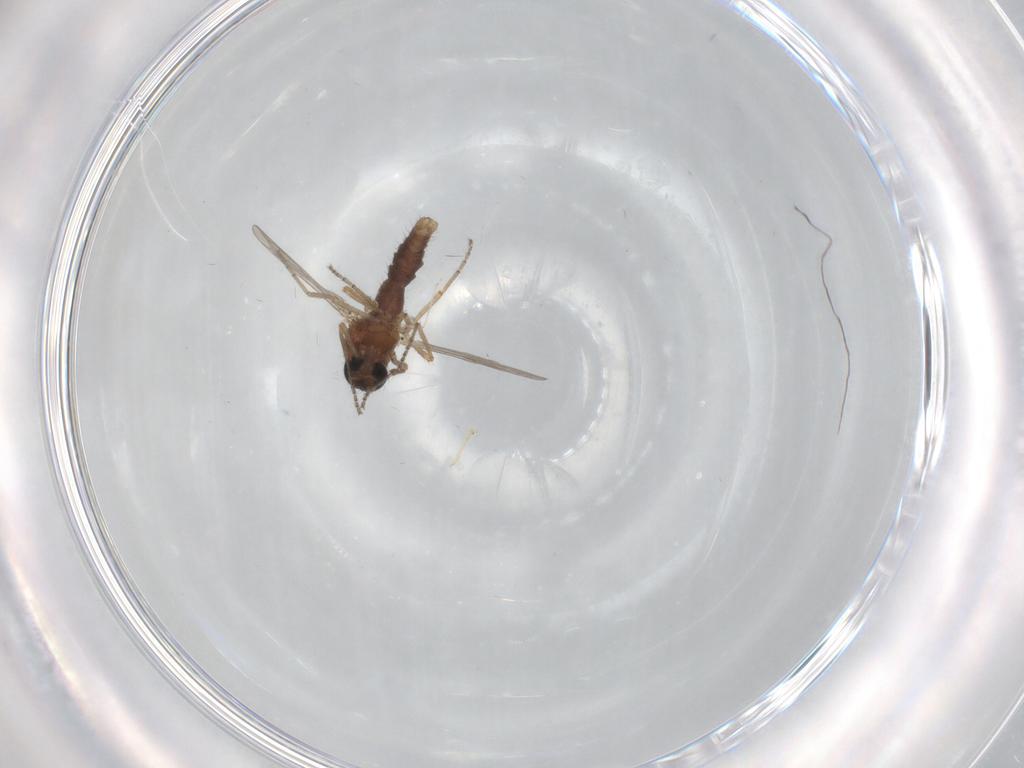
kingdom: Animalia
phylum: Arthropoda
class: Insecta
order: Diptera
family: Ceratopogonidae
